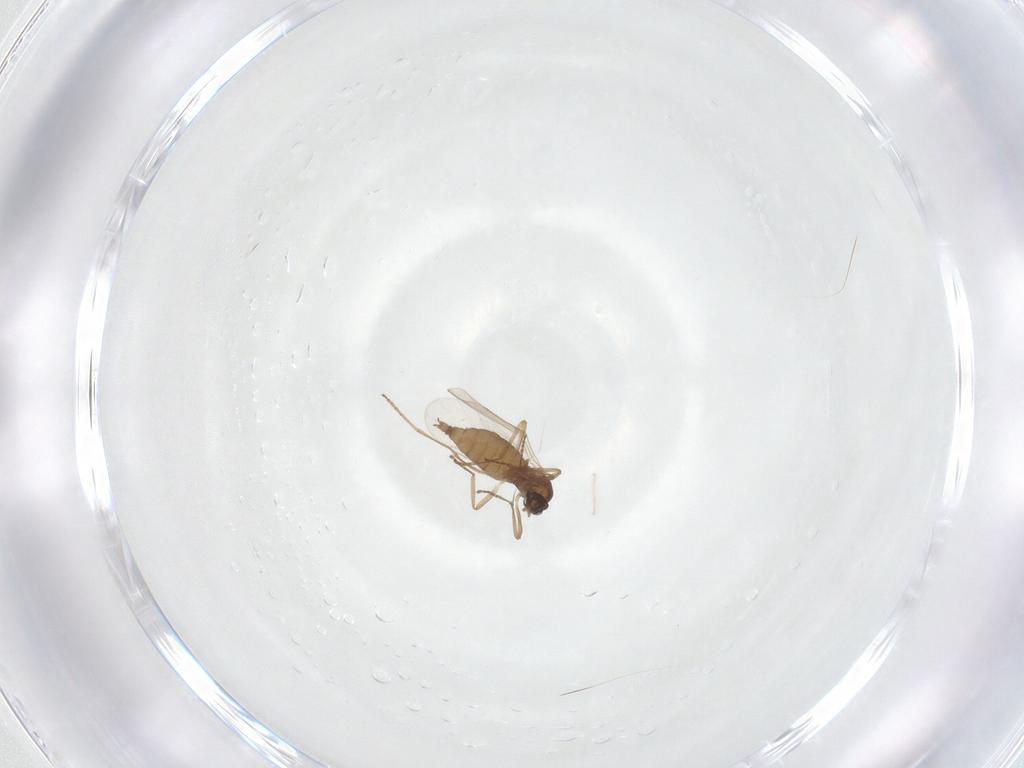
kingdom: Animalia
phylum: Arthropoda
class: Insecta
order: Diptera
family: Cecidomyiidae
